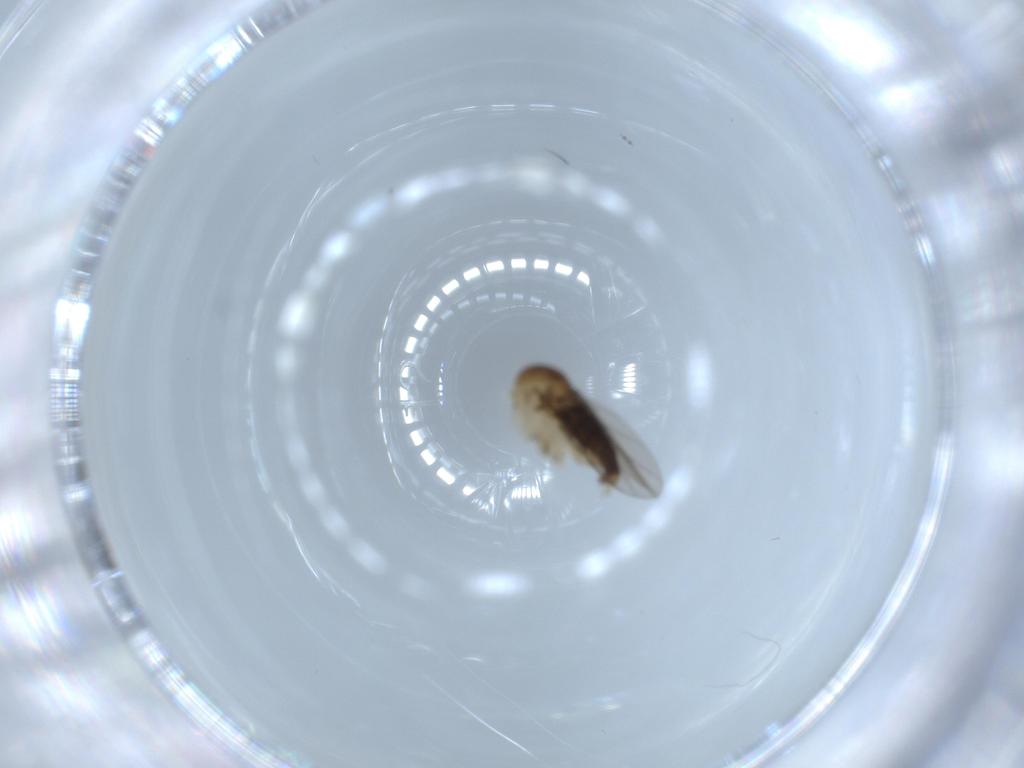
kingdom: Animalia
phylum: Arthropoda
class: Insecta
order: Diptera
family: Phoridae
